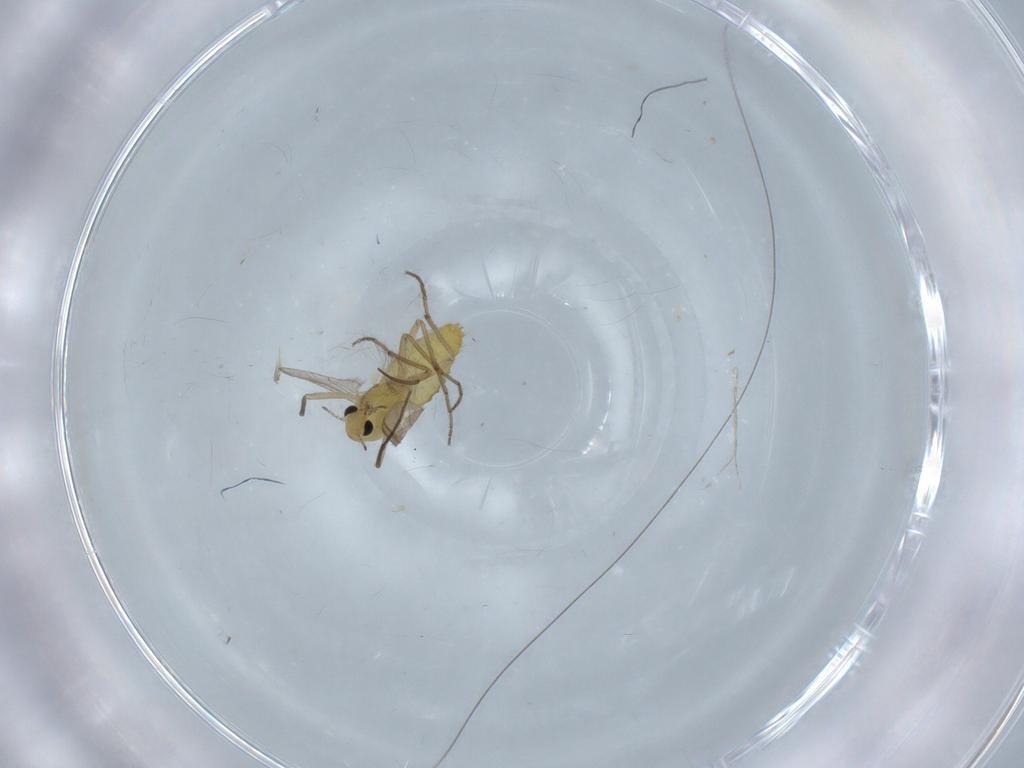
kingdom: Animalia
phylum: Arthropoda
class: Insecta
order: Diptera
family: Chironomidae
